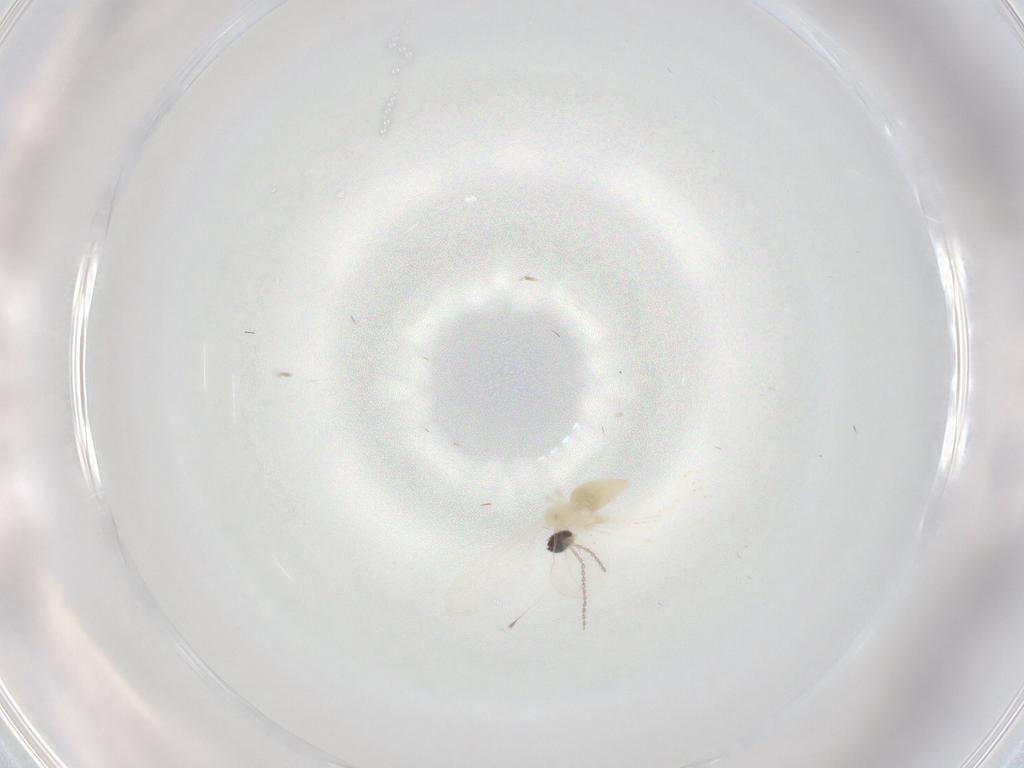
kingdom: Animalia
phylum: Arthropoda
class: Insecta
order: Diptera
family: Cecidomyiidae
